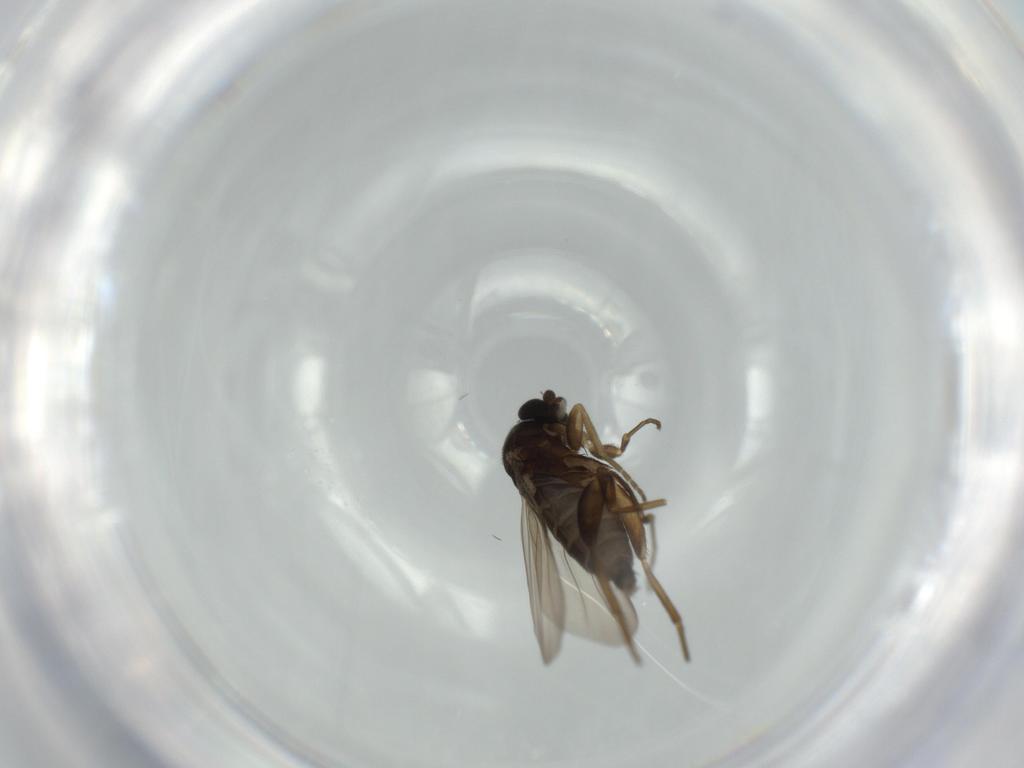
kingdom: Animalia
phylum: Arthropoda
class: Insecta
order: Diptera
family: Phoridae
